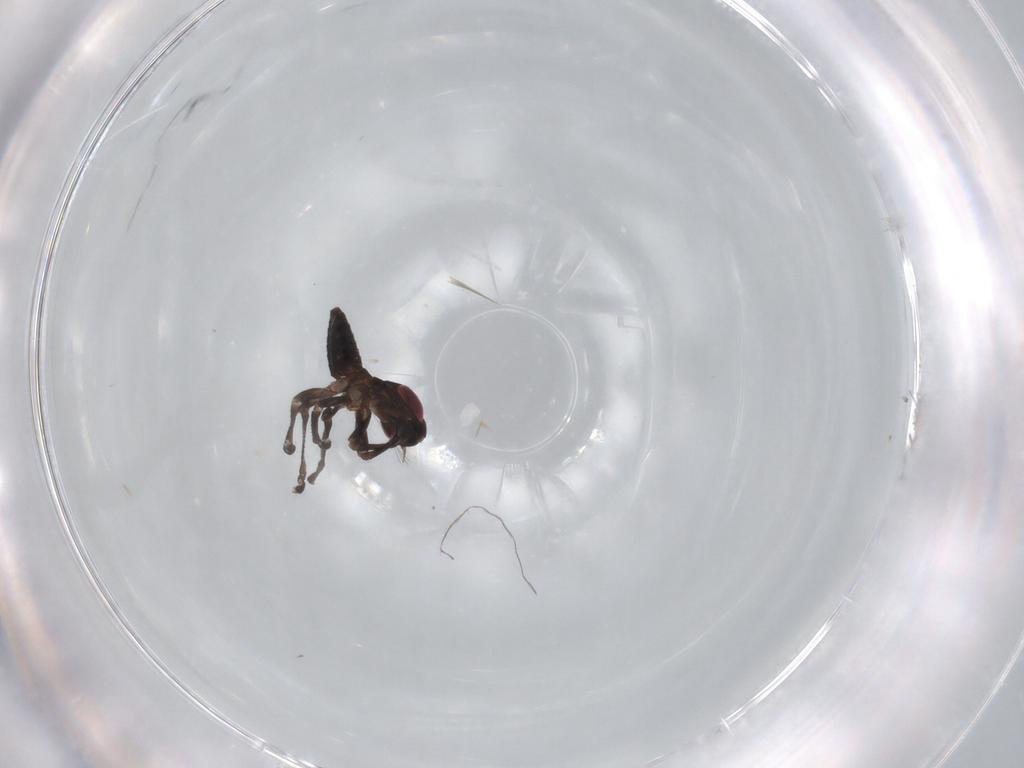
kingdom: Animalia
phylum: Arthropoda
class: Insecta
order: Hemiptera
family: Cicadellidae
